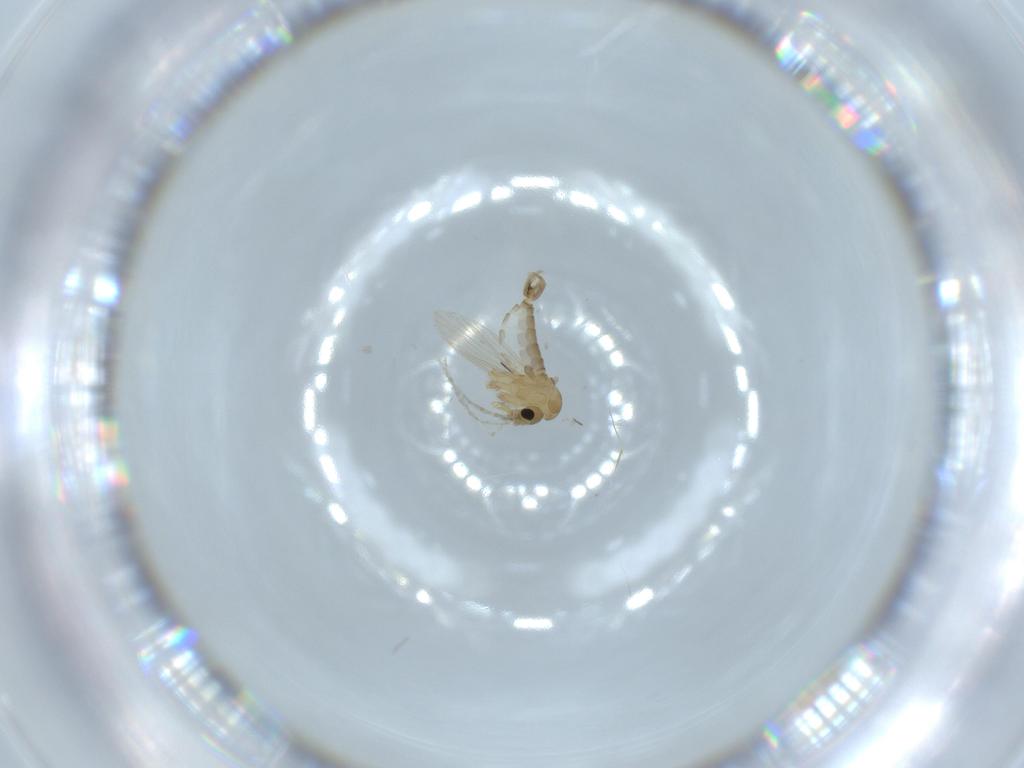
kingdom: Animalia
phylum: Arthropoda
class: Insecta
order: Diptera
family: Psychodidae
